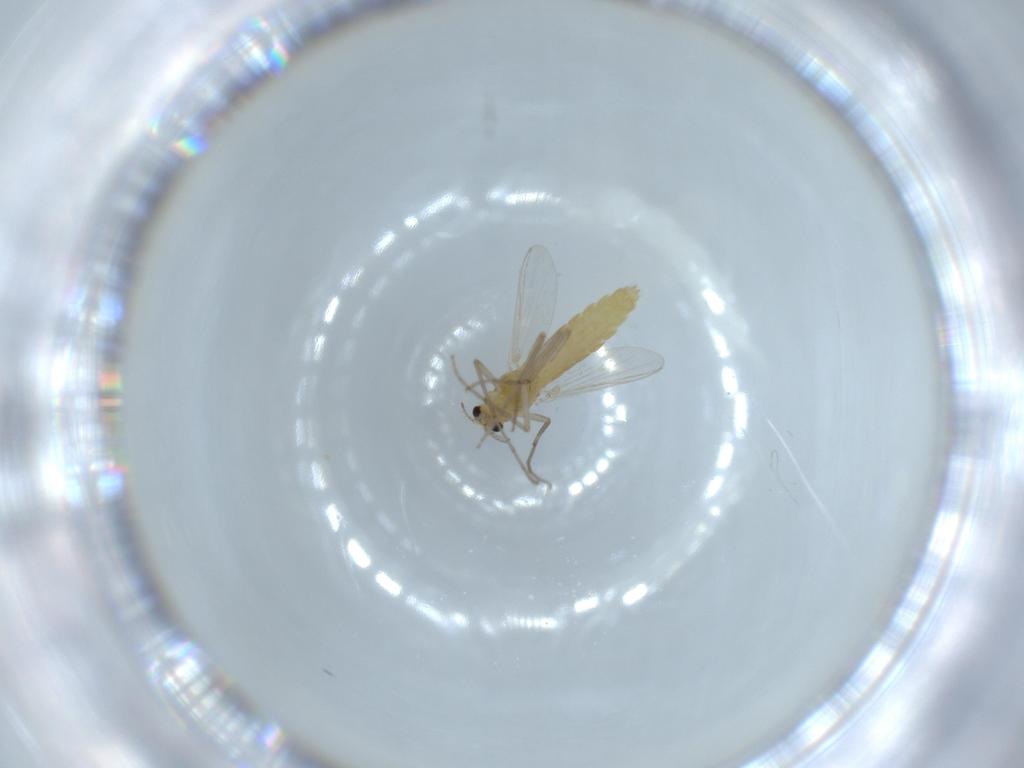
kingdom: Animalia
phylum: Arthropoda
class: Insecta
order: Diptera
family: Chironomidae
